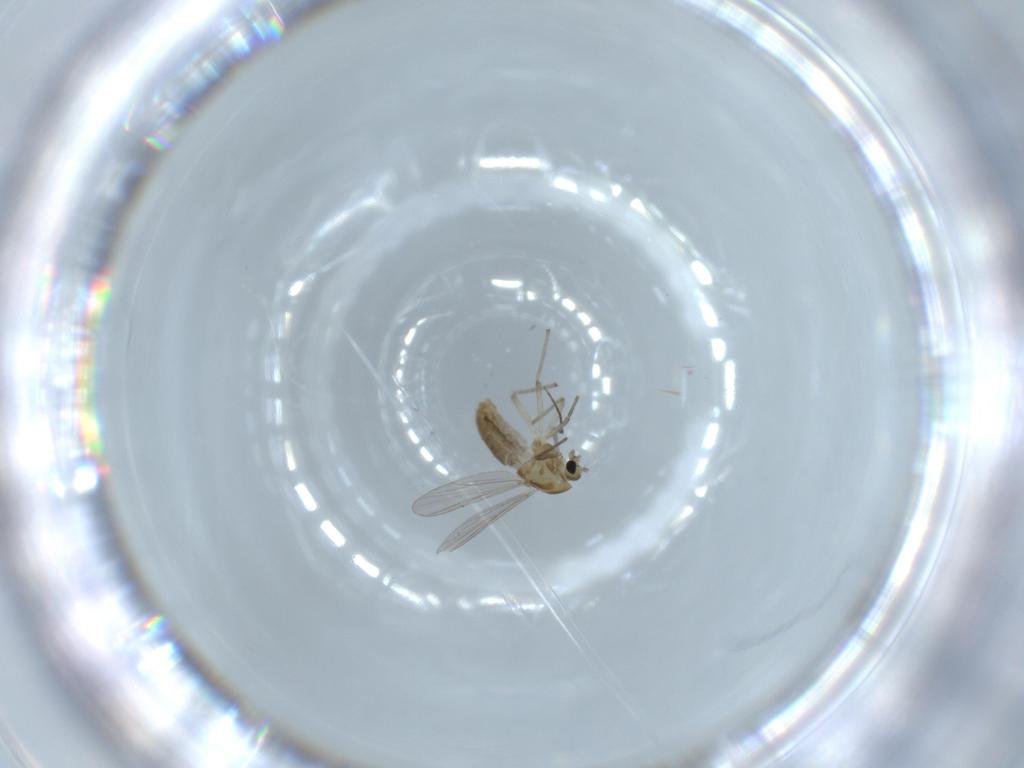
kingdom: Animalia
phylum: Arthropoda
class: Insecta
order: Diptera
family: Chironomidae
